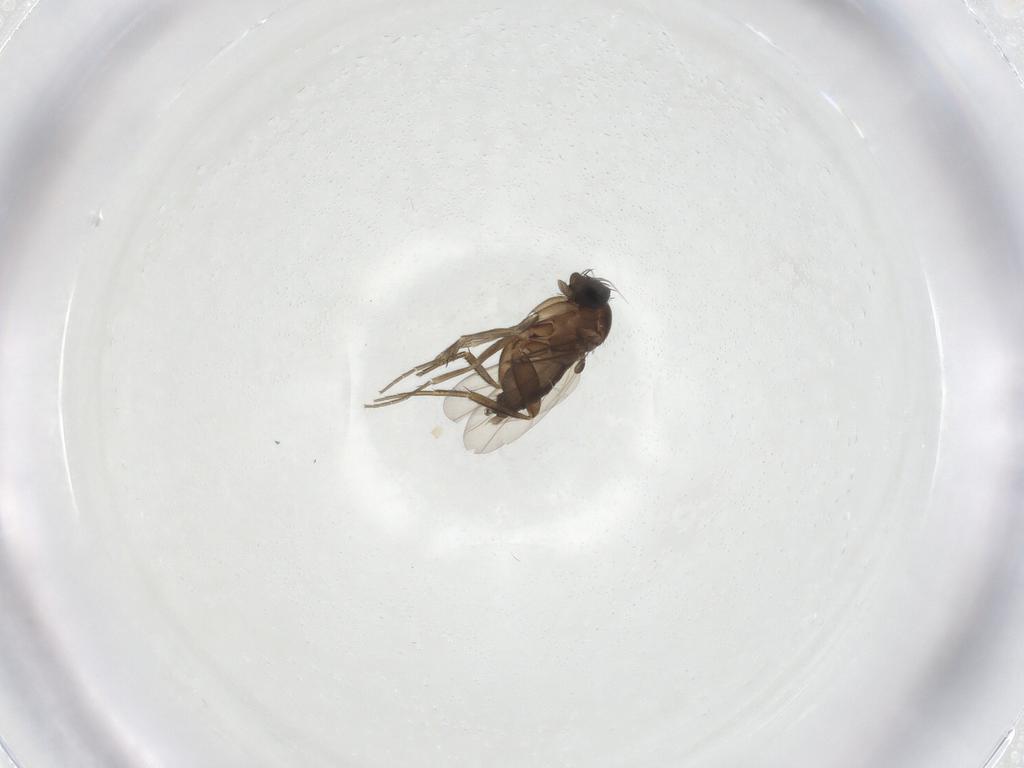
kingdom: Animalia
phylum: Arthropoda
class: Insecta
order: Diptera
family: Phoridae
